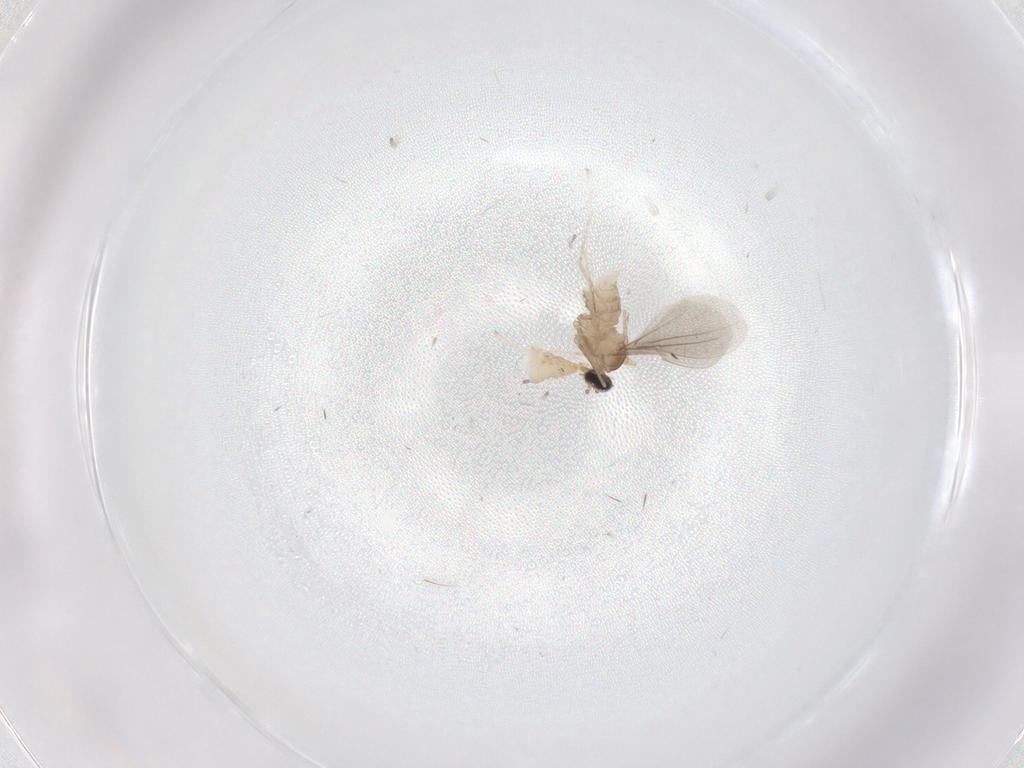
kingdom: Animalia
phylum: Arthropoda
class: Insecta
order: Diptera
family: Cecidomyiidae
